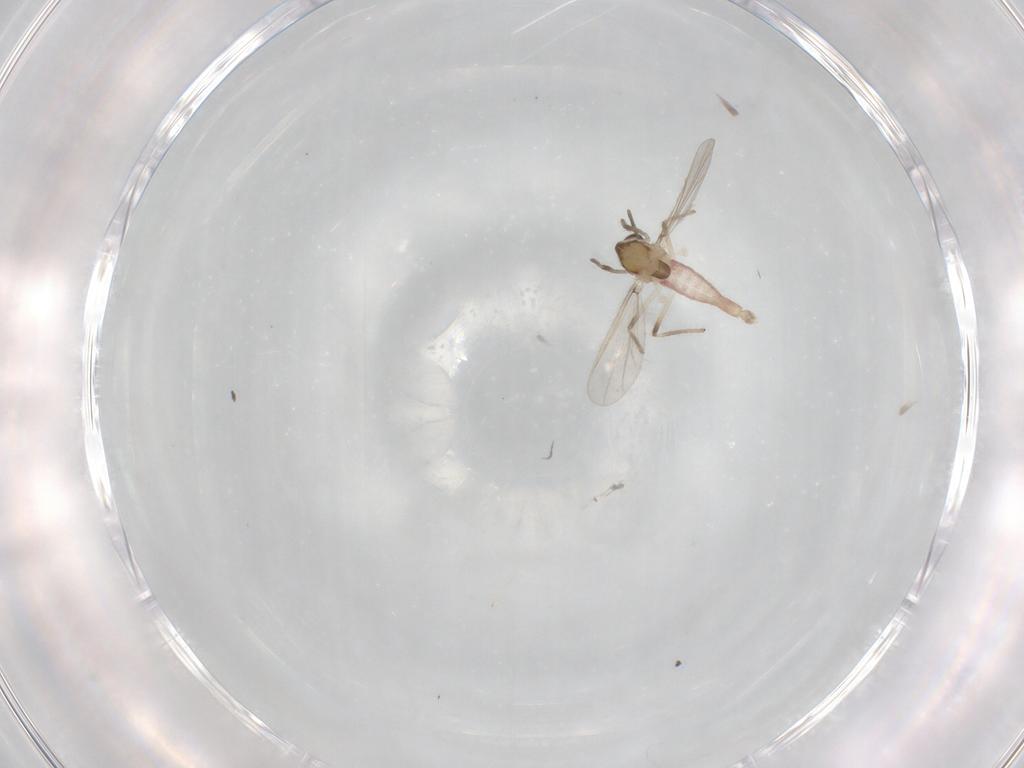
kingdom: Animalia
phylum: Arthropoda
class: Insecta
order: Diptera
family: Chironomidae
